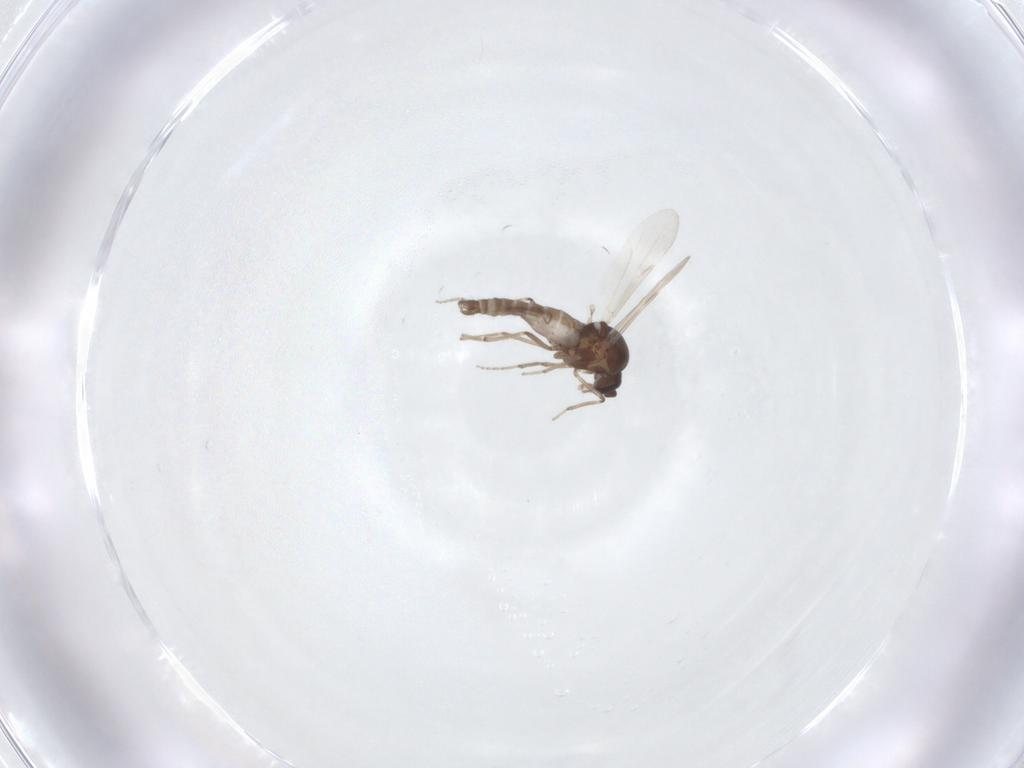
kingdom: Animalia
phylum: Arthropoda
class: Insecta
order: Diptera
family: Ceratopogonidae
